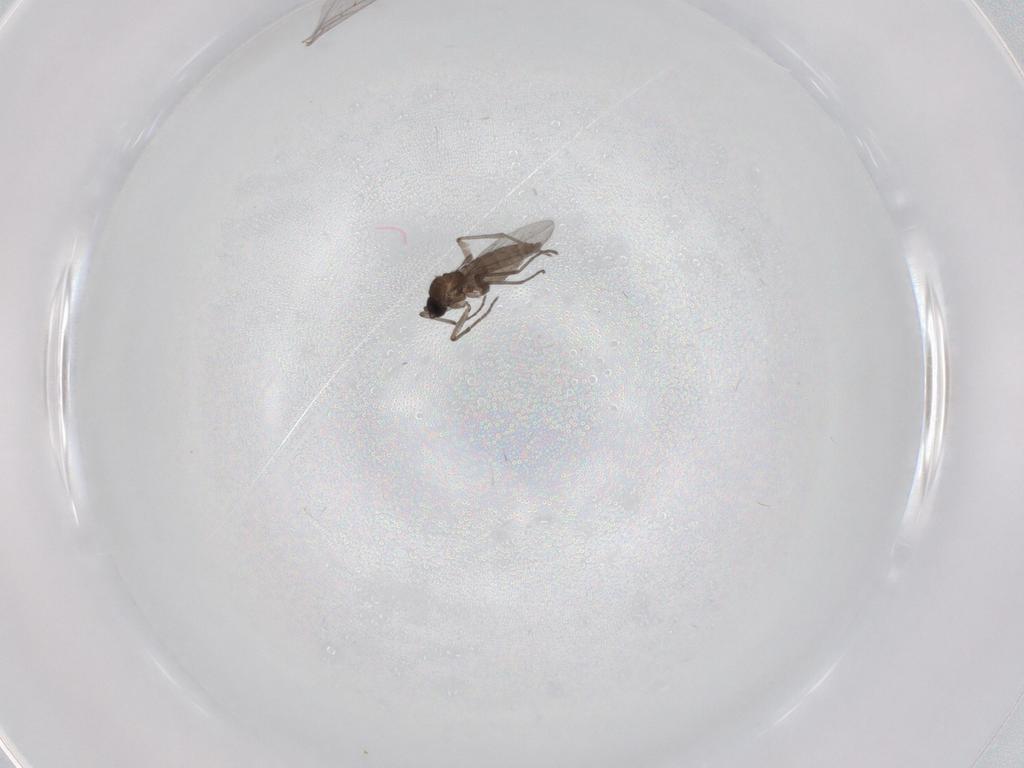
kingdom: Animalia
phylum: Arthropoda
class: Insecta
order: Diptera
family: Sciaridae
